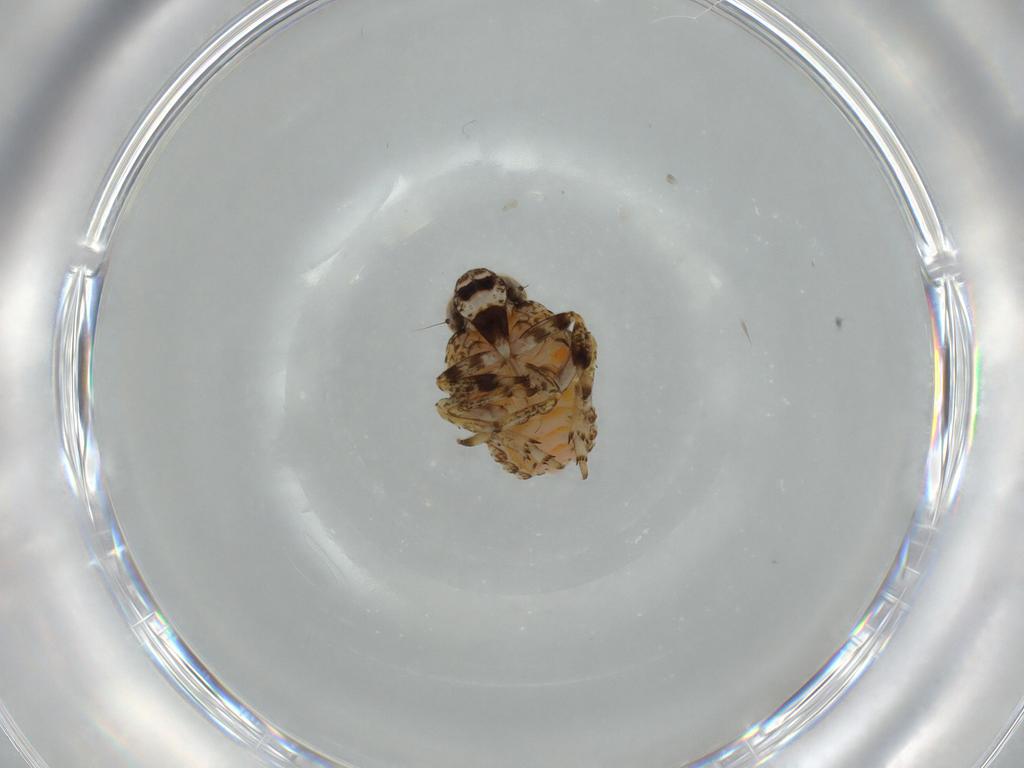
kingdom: Animalia
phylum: Arthropoda
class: Insecta
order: Hemiptera
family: Issidae
